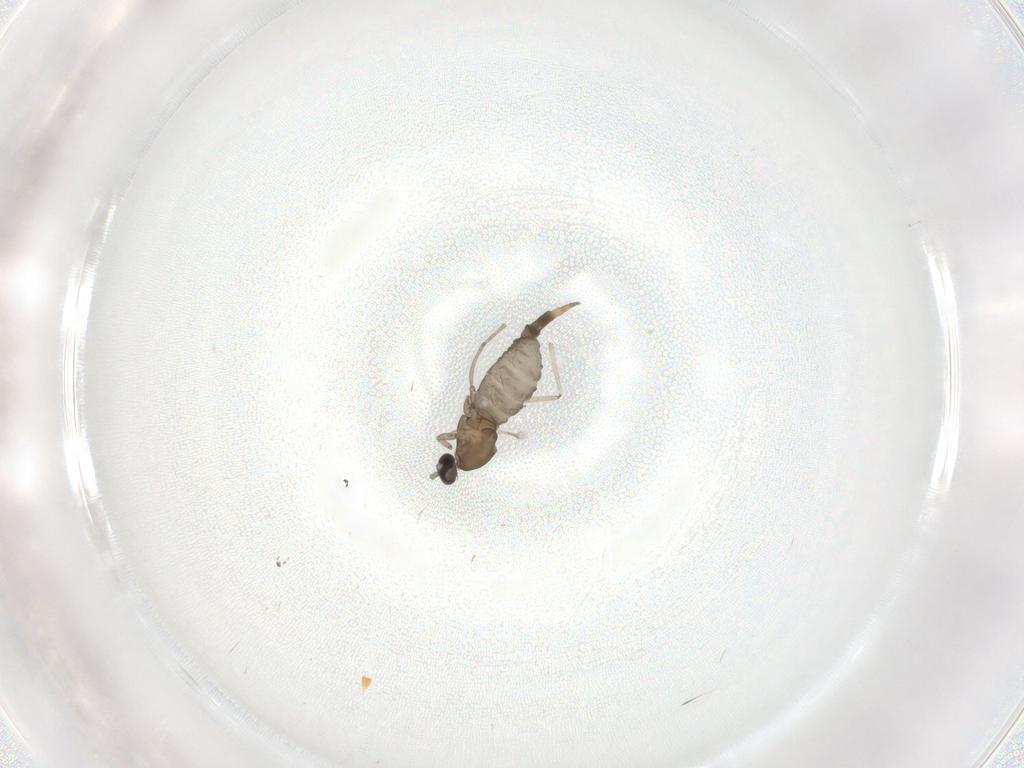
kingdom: Animalia
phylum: Arthropoda
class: Insecta
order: Diptera
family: Cecidomyiidae
